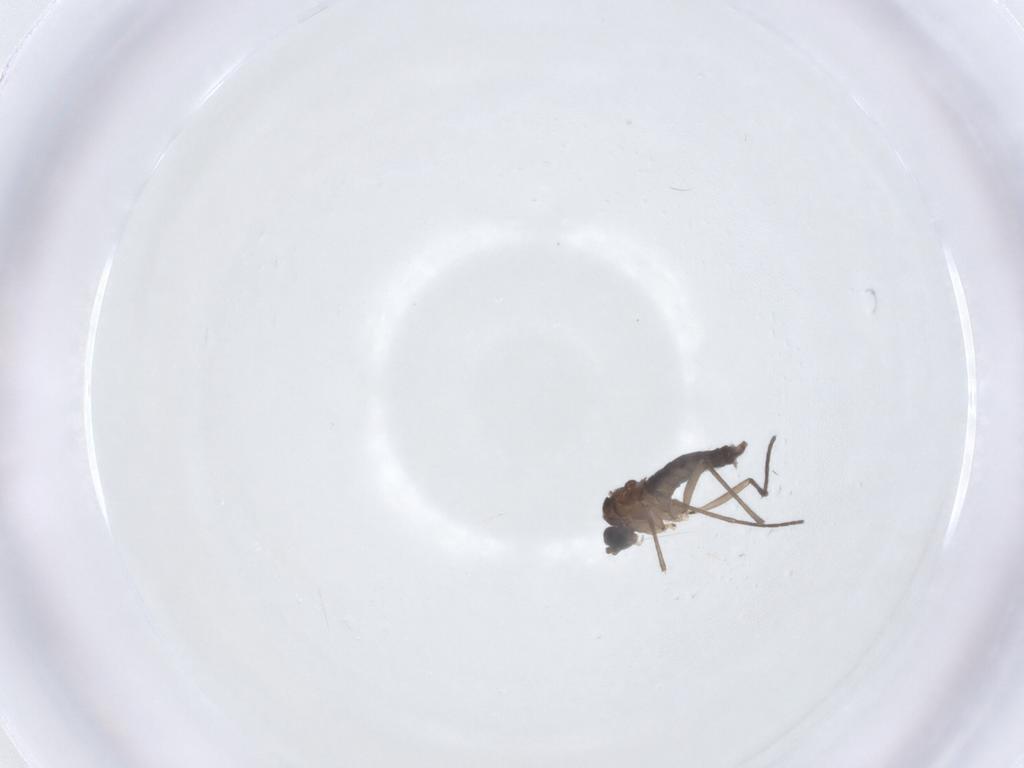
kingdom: Animalia
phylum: Arthropoda
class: Insecta
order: Diptera
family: Sciaridae
